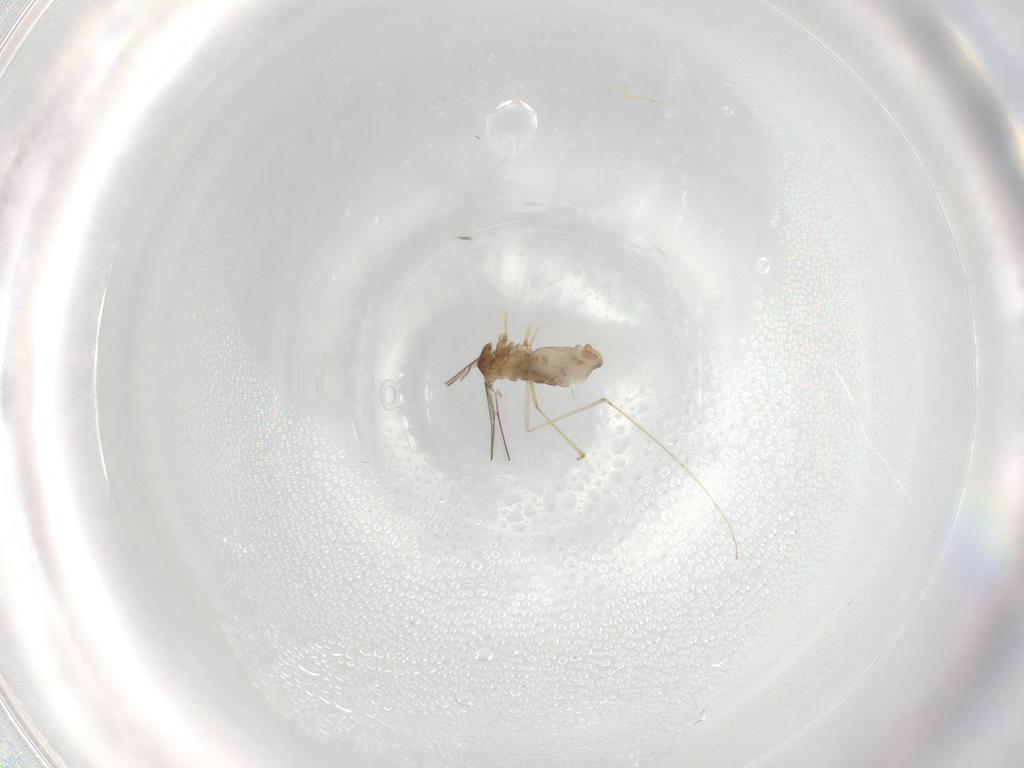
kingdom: Animalia
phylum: Arthropoda
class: Insecta
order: Diptera
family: Cecidomyiidae
